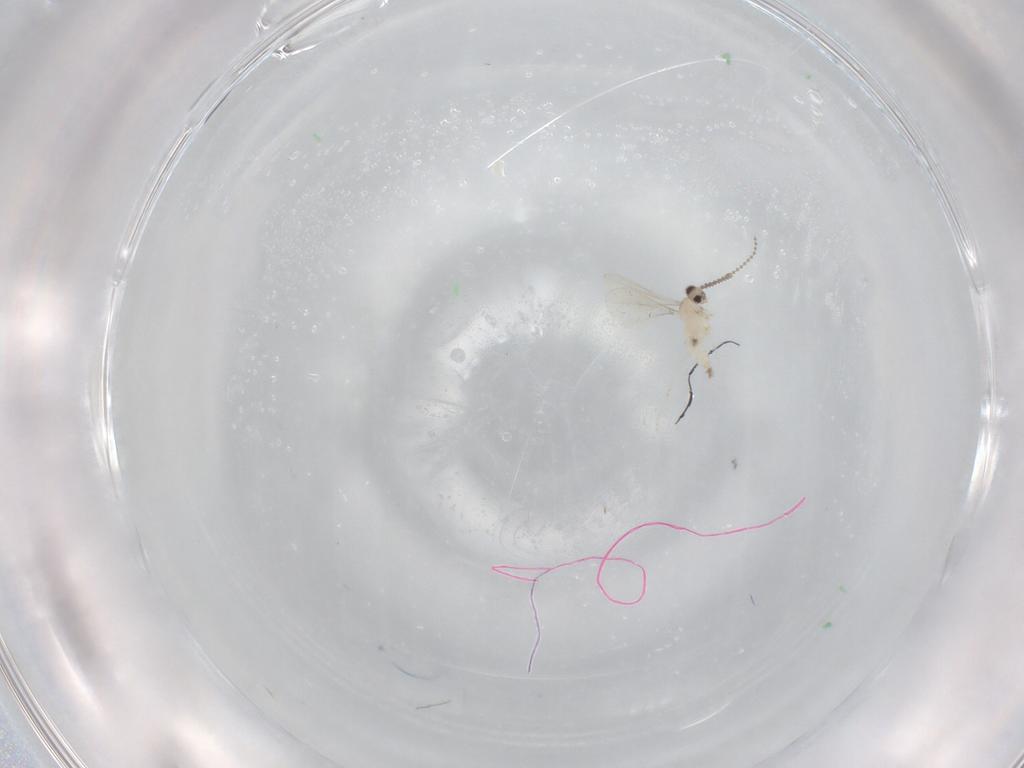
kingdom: Animalia
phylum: Arthropoda
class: Insecta
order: Diptera
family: Cecidomyiidae
